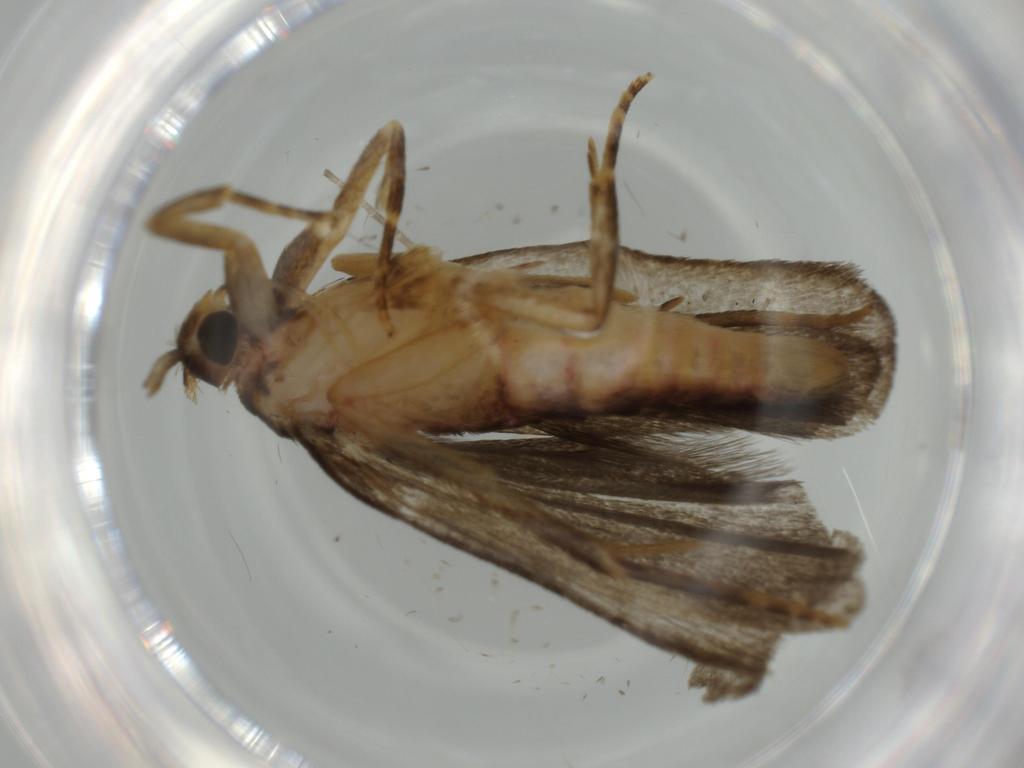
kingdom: Animalia
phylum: Arthropoda
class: Insecta
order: Lepidoptera
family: Autostichidae
